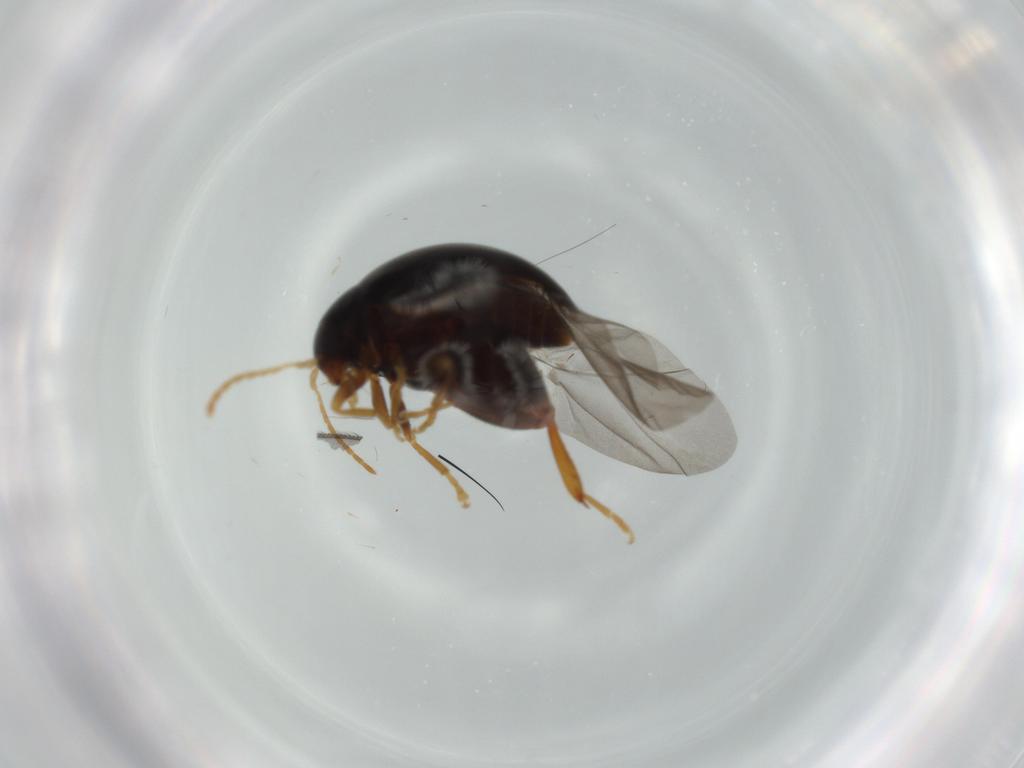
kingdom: Animalia
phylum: Arthropoda
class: Insecta
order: Coleoptera
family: Chrysomelidae
